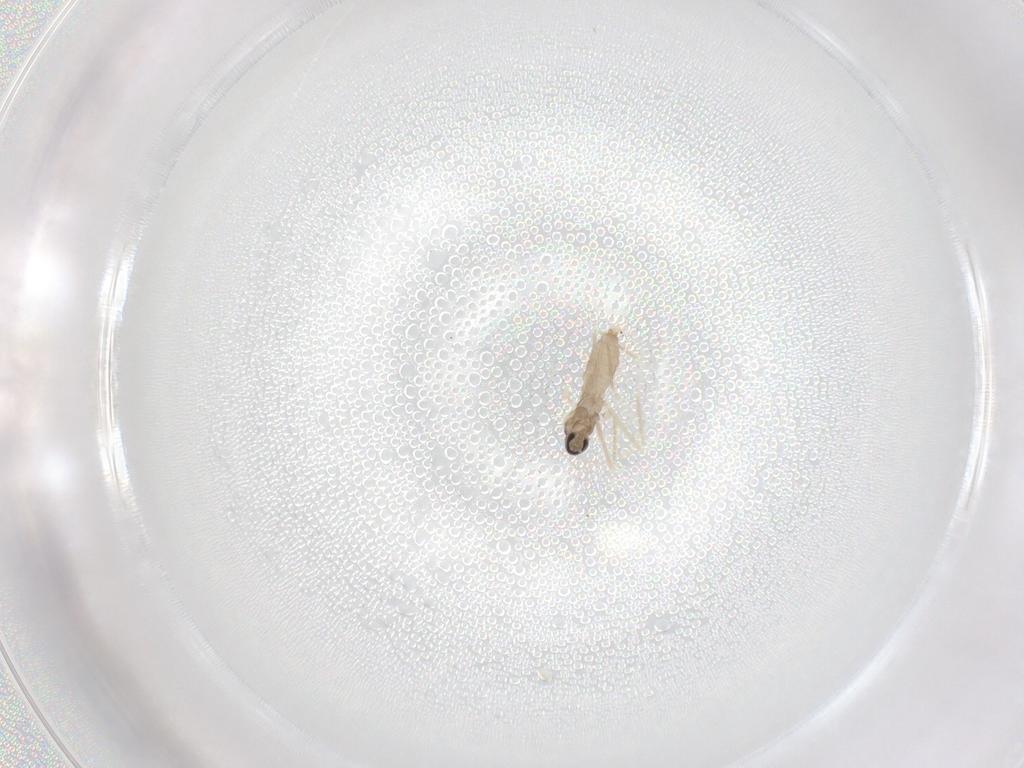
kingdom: Animalia
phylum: Arthropoda
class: Insecta
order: Diptera
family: Cecidomyiidae
